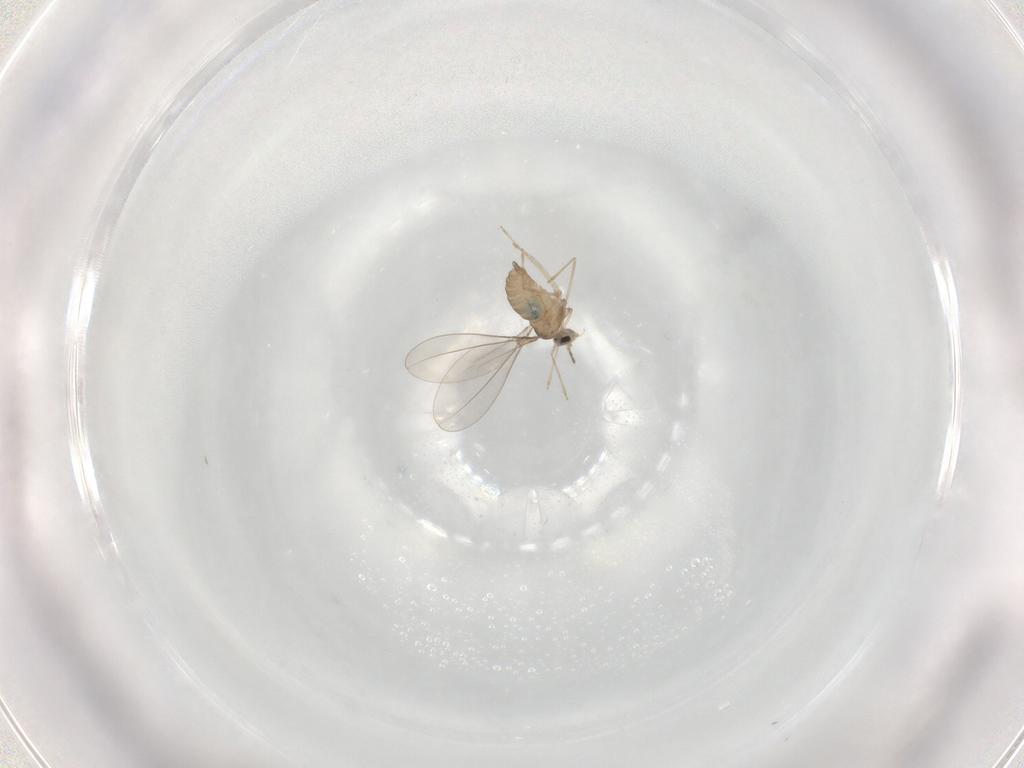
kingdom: Animalia
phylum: Arthropoda
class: Insecta
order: Diptera
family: Cecidomyiidae
